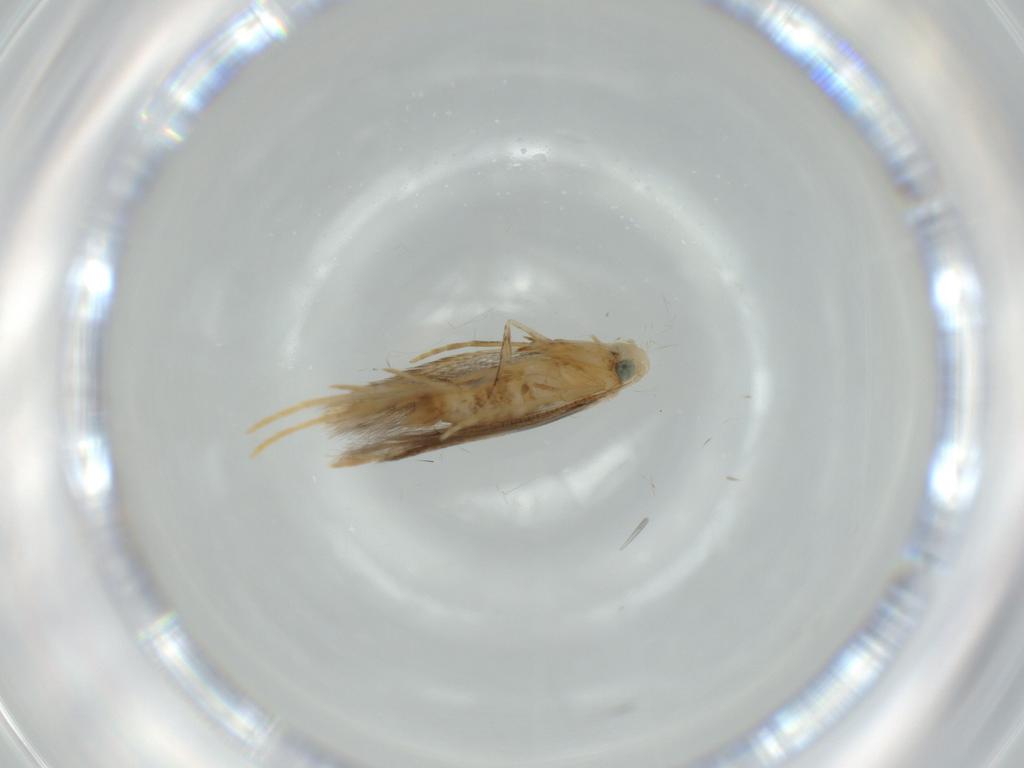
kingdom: Animalia
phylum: Arthropoda
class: Insecta
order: Lepidoptera
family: Tischeriidae
